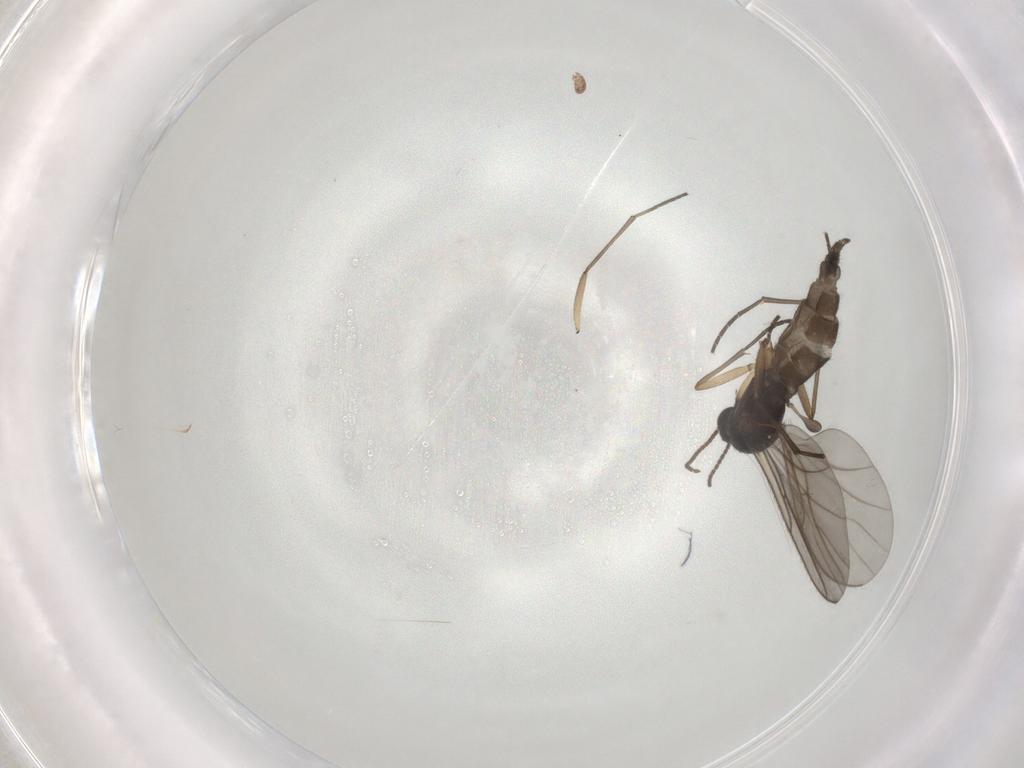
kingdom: Animalia
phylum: Arthropoda
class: Insecta
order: Diptera
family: Sciaridae
